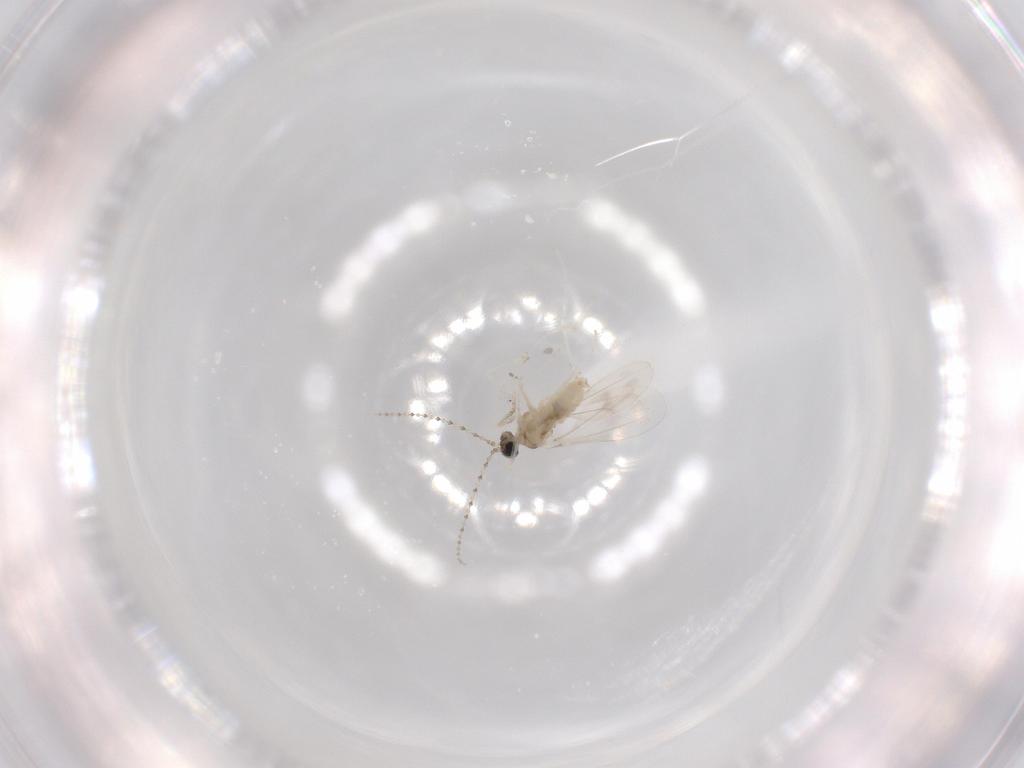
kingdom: Animalia
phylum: Arthropoda
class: Insecta
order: Diptera
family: Cecidomyiidae
